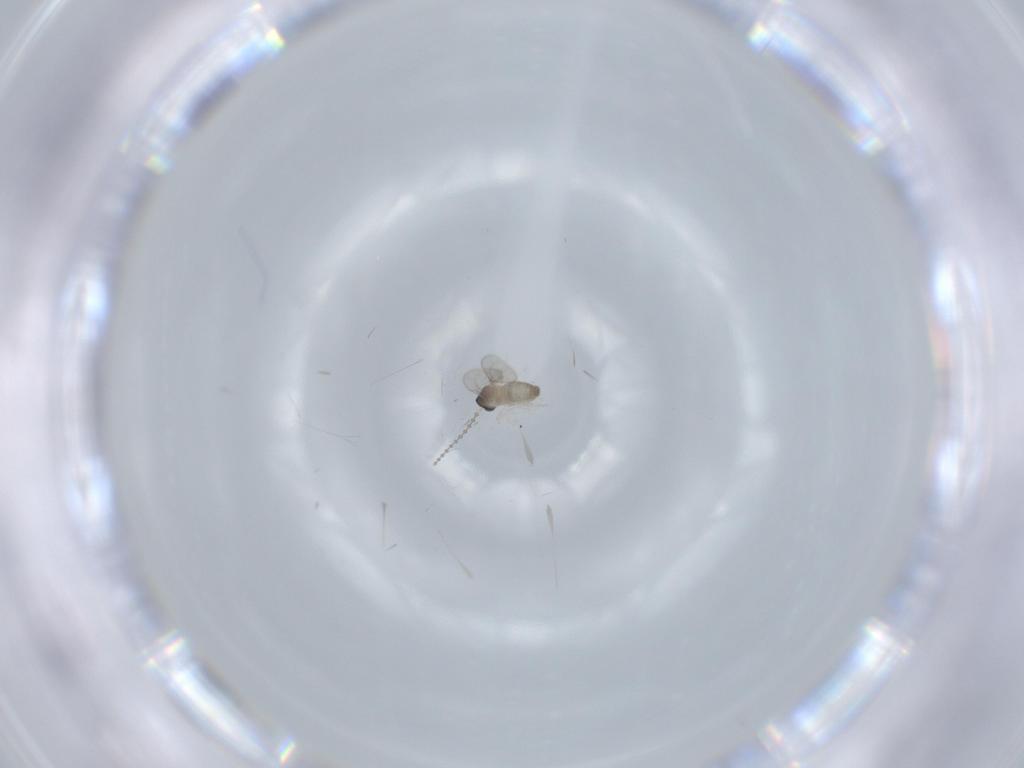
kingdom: Animalia
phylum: Arthropoda
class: Insecta
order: Diptera
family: Cecidomyiidae
